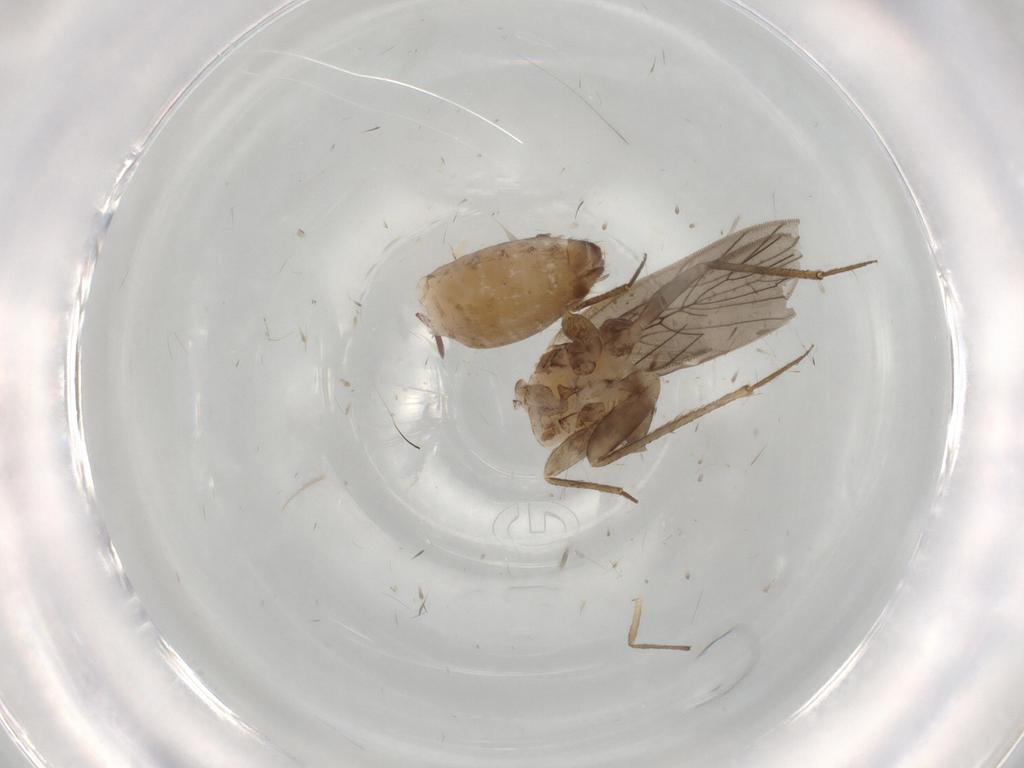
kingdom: Animalia
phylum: Arthropoda
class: Insecta
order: Psocodea
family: Lepidopsocidae
